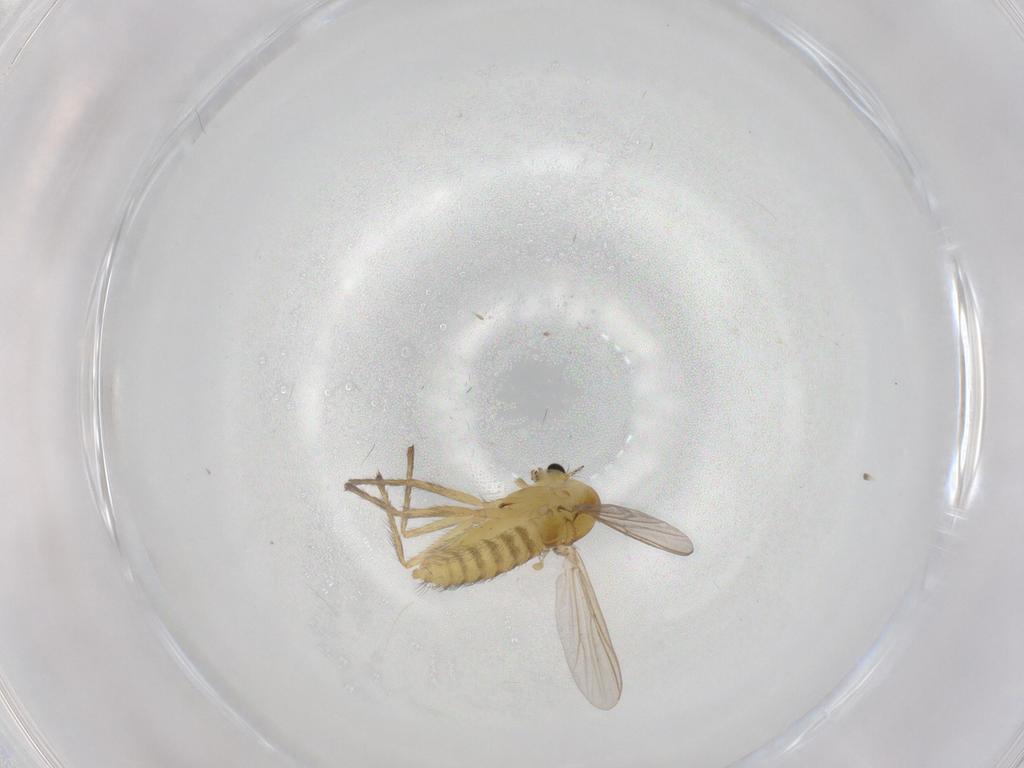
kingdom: Animalia
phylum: Arthropoda
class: Insecta
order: Diptera
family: Chironomidae
